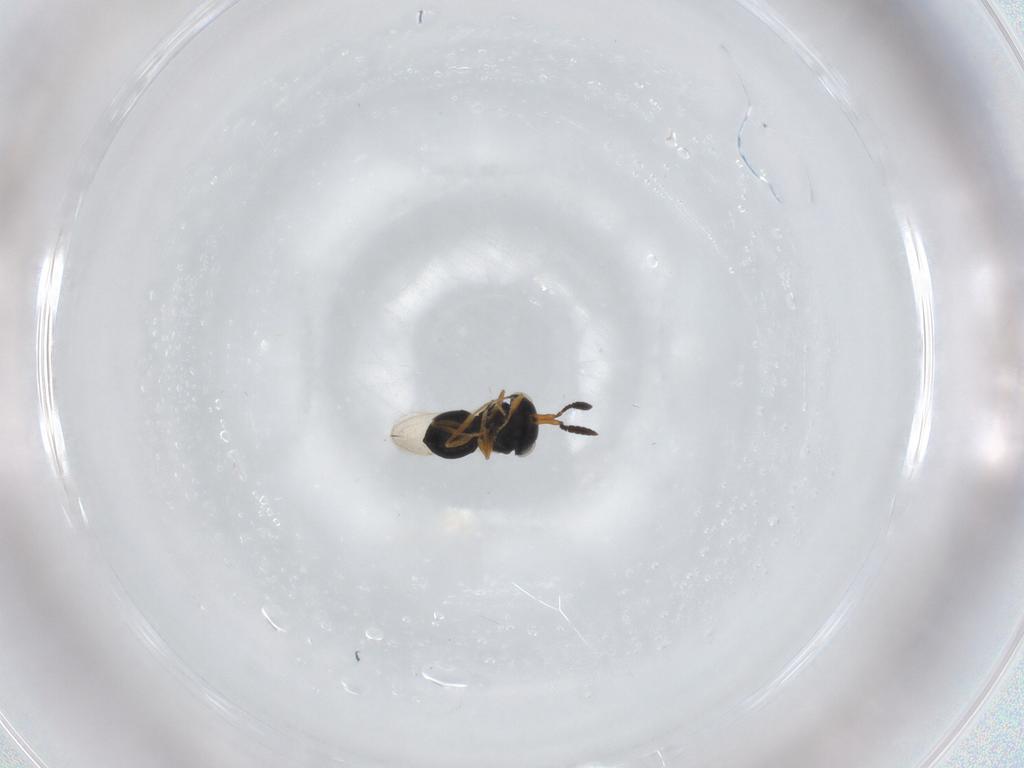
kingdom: Animalia
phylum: Arthropoda
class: Insecta
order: Hymenoptera
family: Scelionidae
